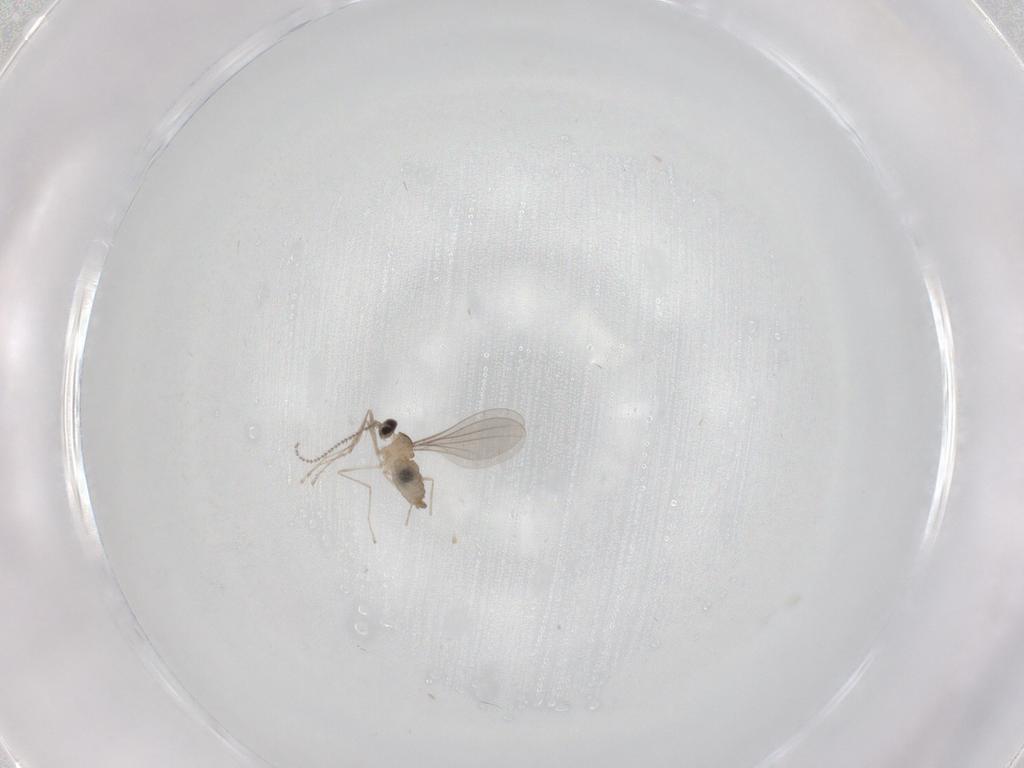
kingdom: Animalia
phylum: Arthropoda
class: Insecta
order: Diptera
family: Cecidomyiidae
